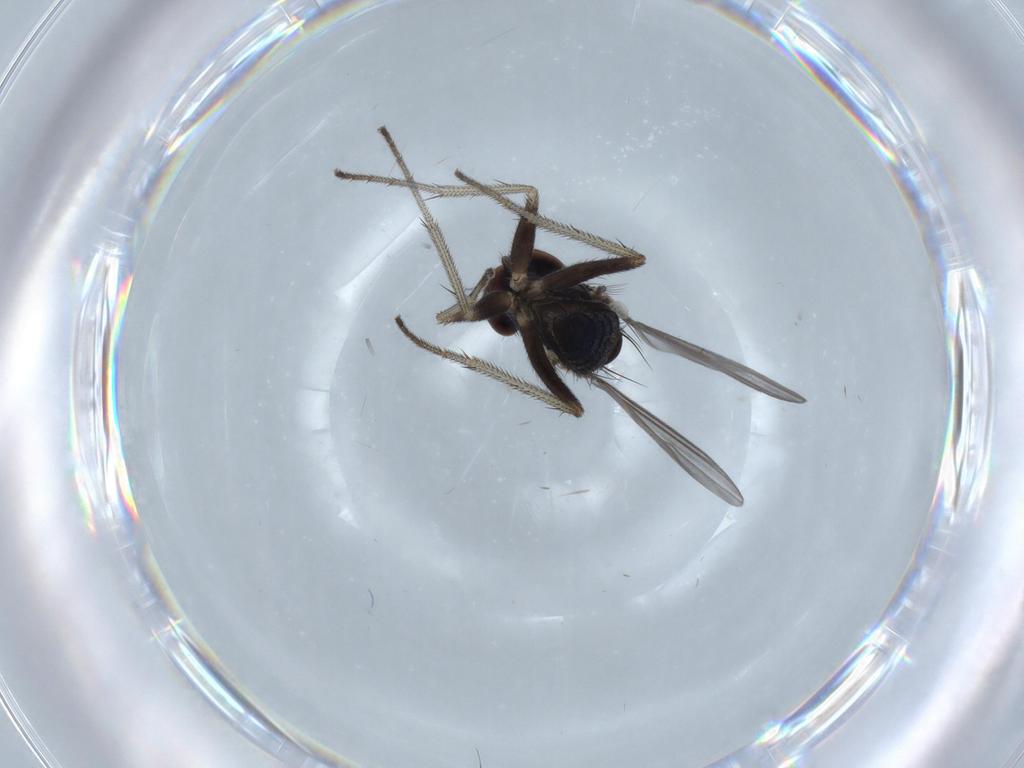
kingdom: Animalia
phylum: Arthropoda
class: Insecta
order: Diptera
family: Dolichopodidae
